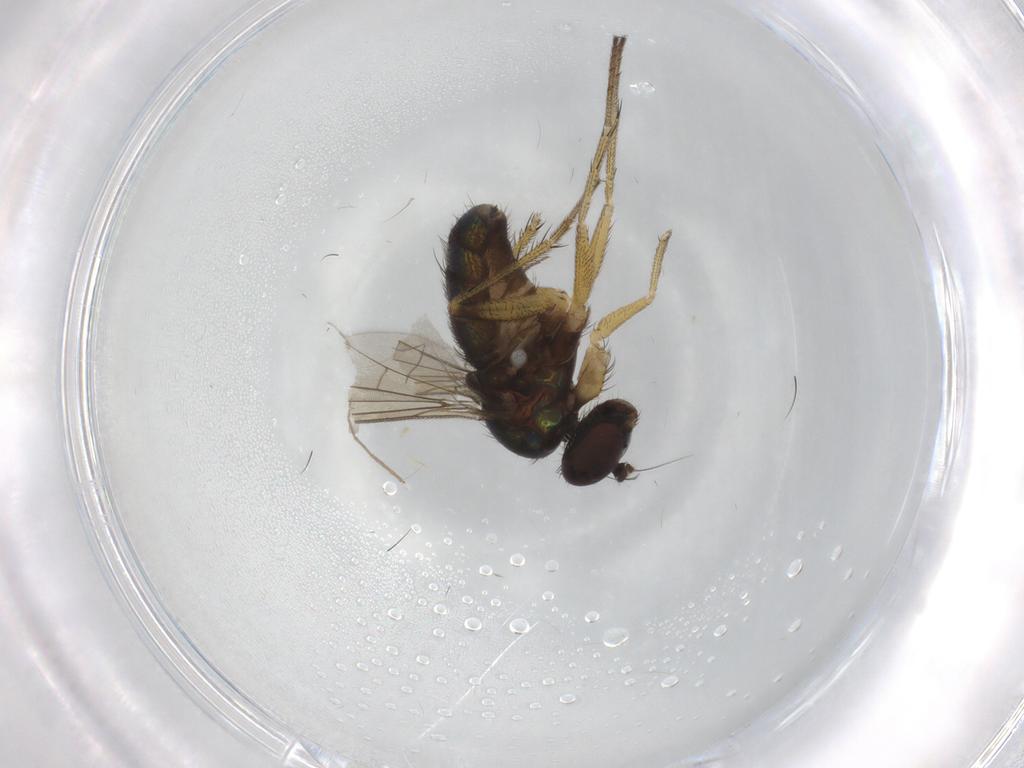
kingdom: Animalia
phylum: Arthropoda
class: Insecta
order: Diptera
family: Dolichopodidae
